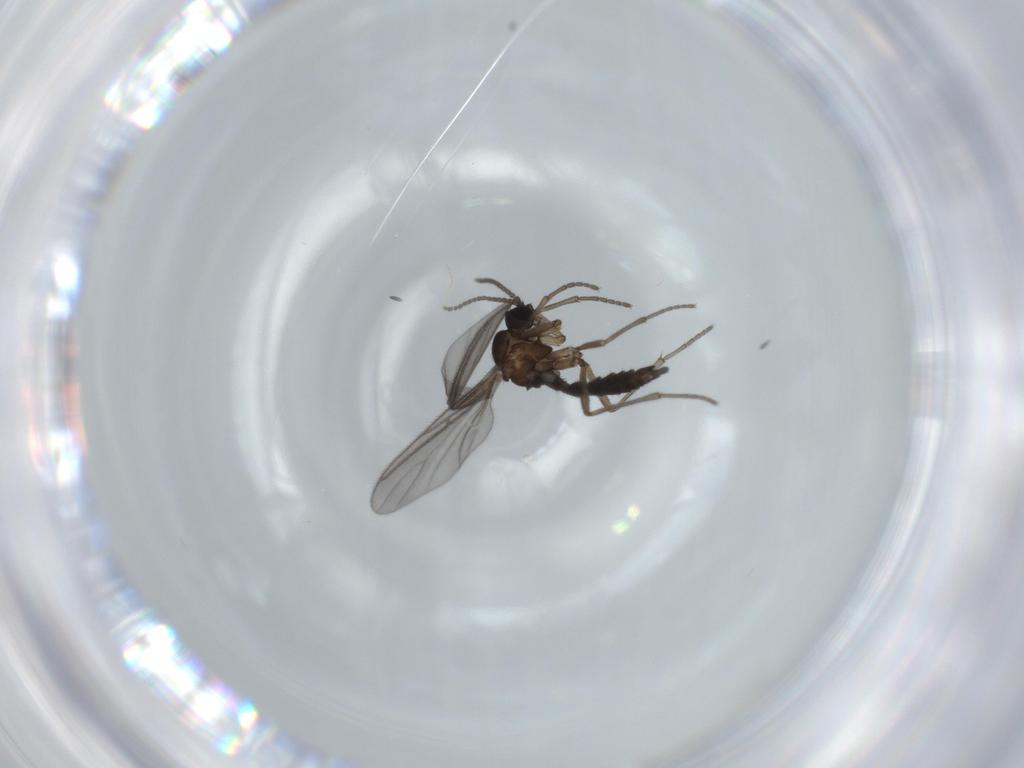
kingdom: Animalia
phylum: Arthropoda
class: Insecta
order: Diptera
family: Sciaridae
